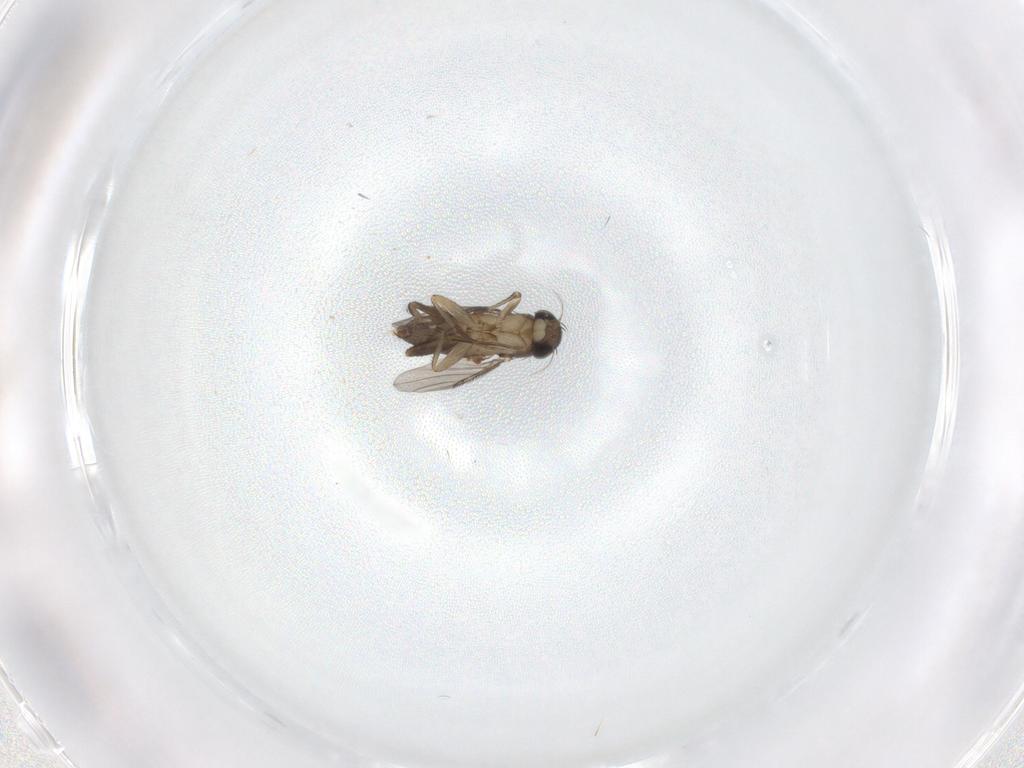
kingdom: Animalia
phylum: Arthropoda
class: Insecta
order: Diptera
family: Phoridae
